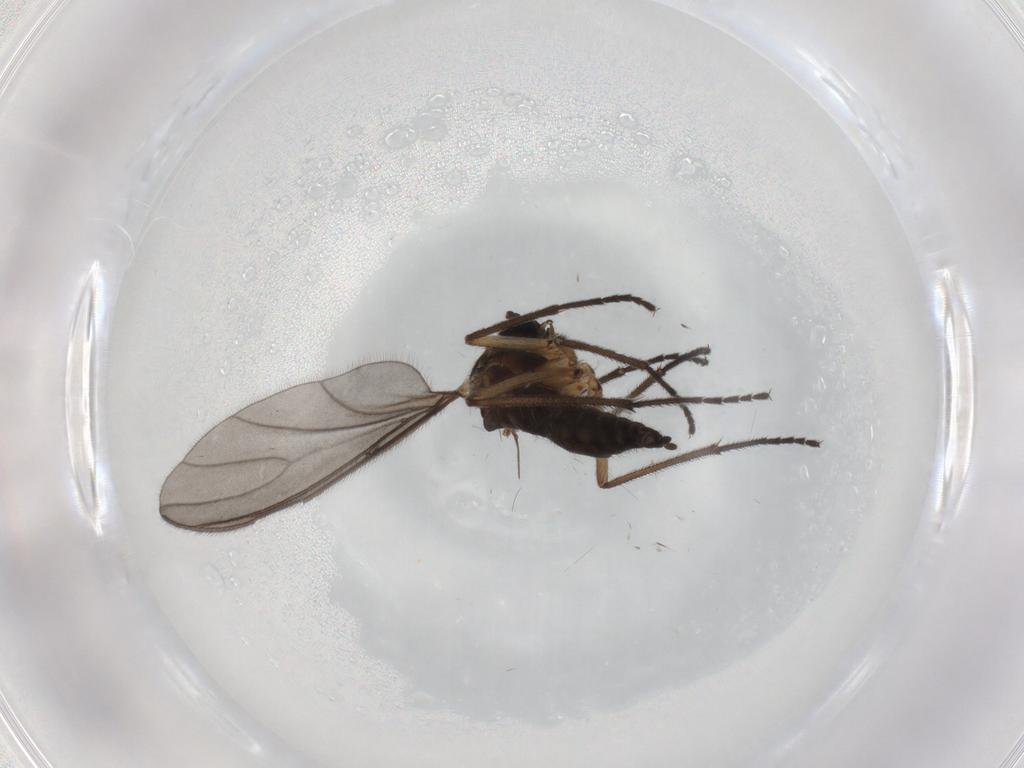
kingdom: Animalia
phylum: Arthropoda
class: Insecta
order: Diptera
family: Sciaridae
